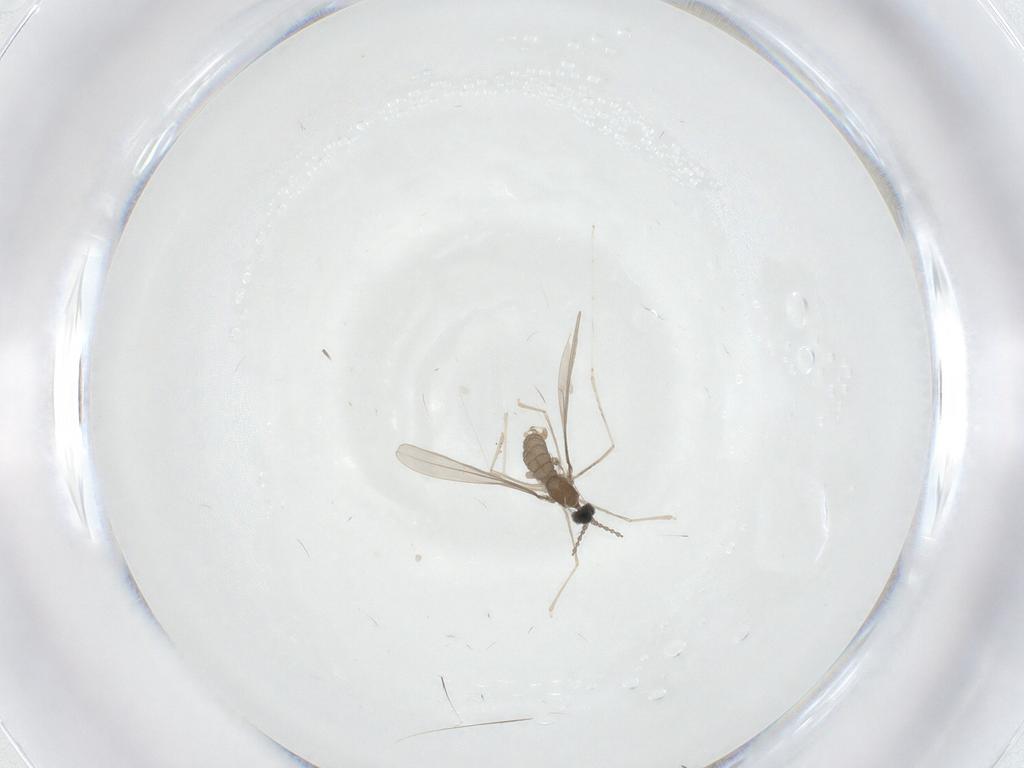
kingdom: Animalia
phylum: Arthropoda
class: Insecta
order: Diptera
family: Cecidomyiidae
